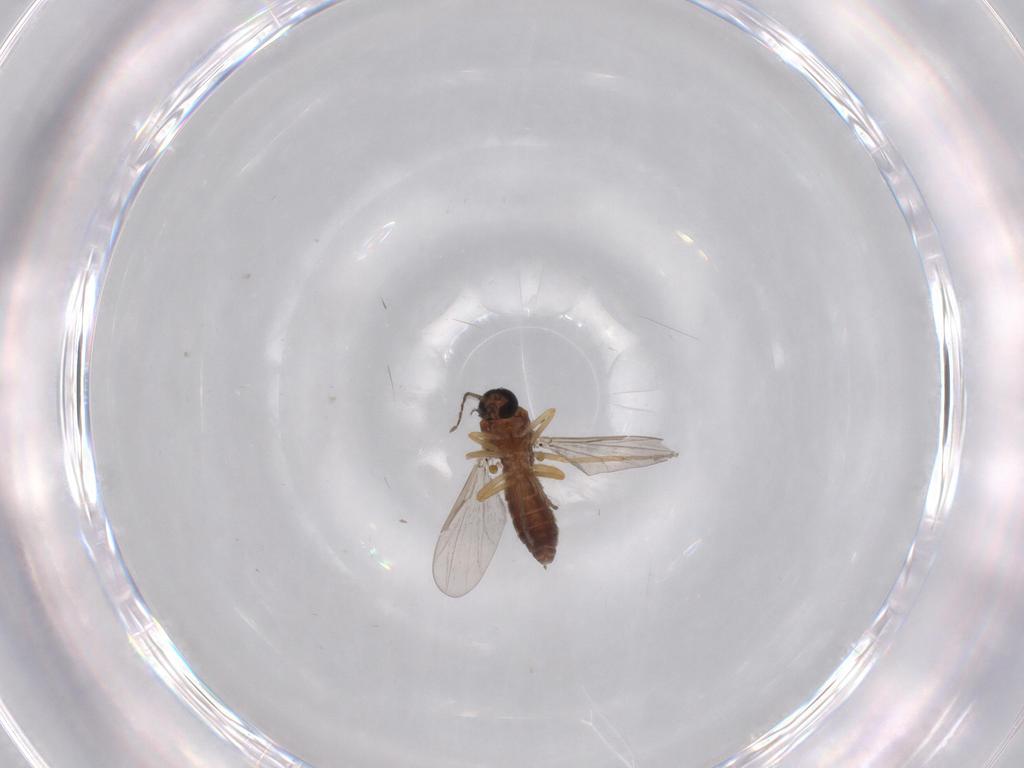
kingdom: Animalia
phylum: Arthropoda
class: Insecta
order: Diptera
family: Ceratopogonidae
